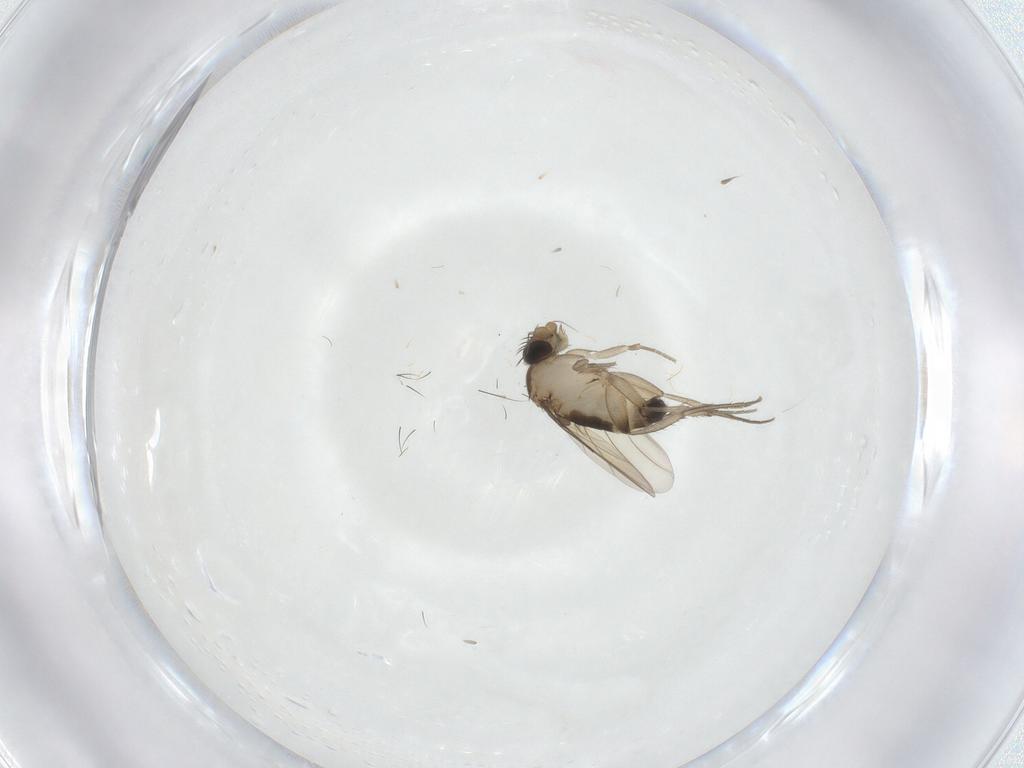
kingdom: Animalia
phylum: Arthropoda
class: Insecta
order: Diptera
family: Phoridae
